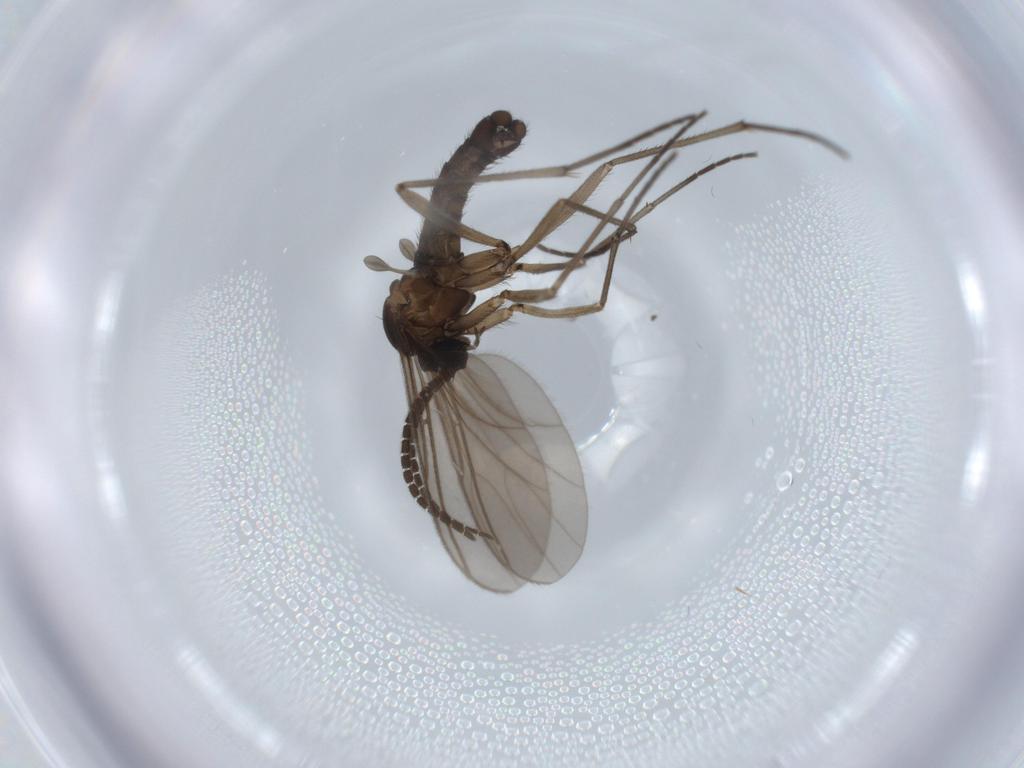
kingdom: Animalia
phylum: Arthropoda
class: Insecta
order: Diptera
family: Sciaridae
